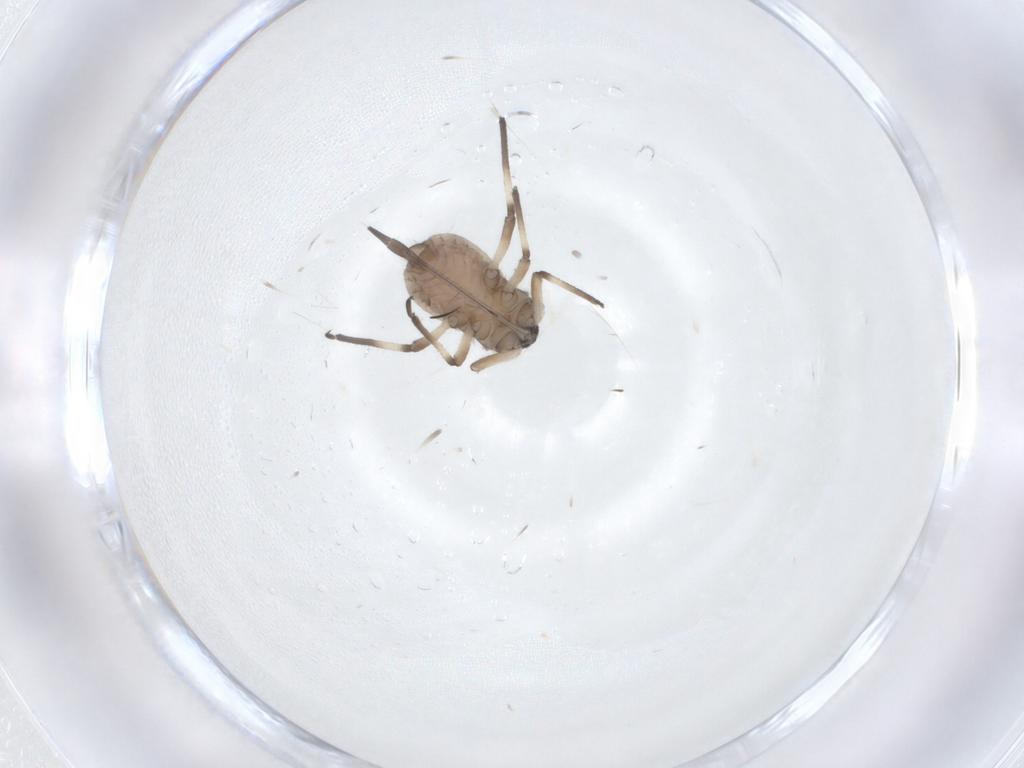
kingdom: Animalia
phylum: Arthropoda
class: Insecta
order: Hemiptera
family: Aphididae
